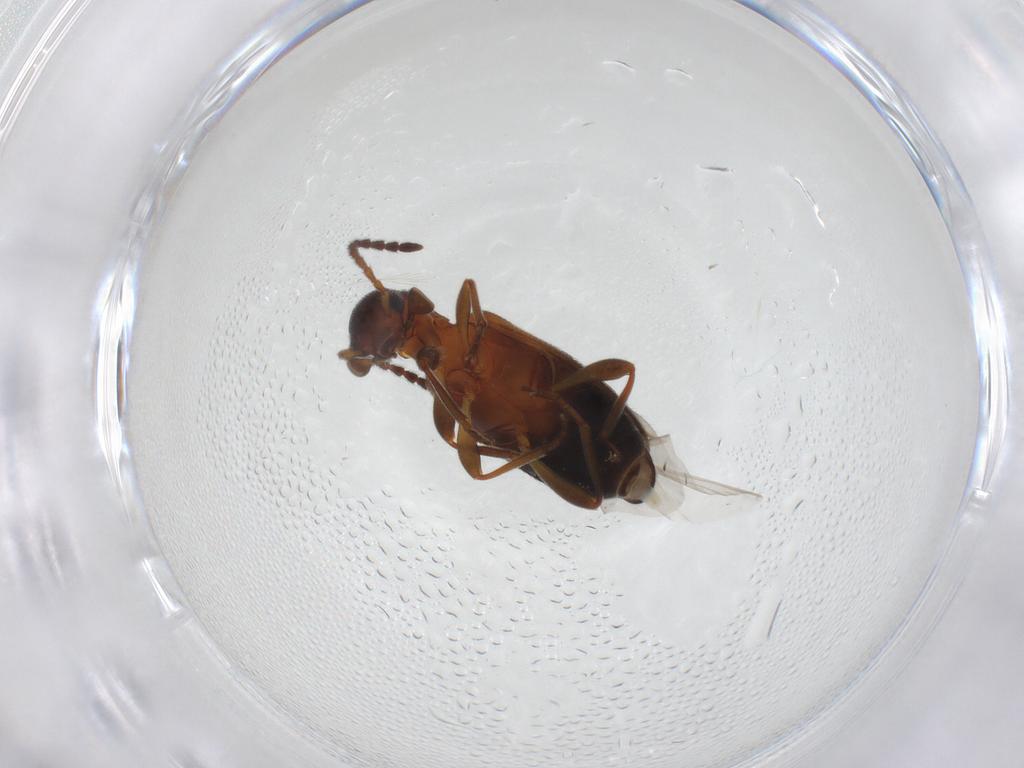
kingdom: Animalia
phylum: Arthropoda
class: Insecta
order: Coleoptera
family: Anthicidae
